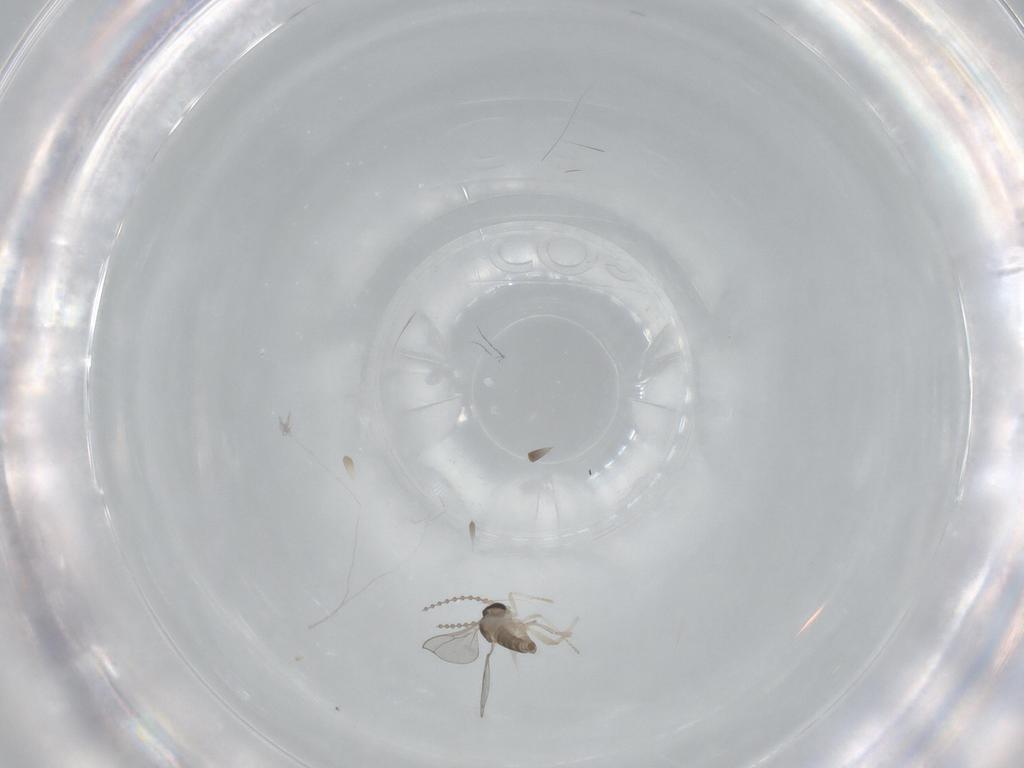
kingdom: Animalia
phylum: Arthropoda
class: Insecta
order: Diptera
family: Cecidomyiidae
